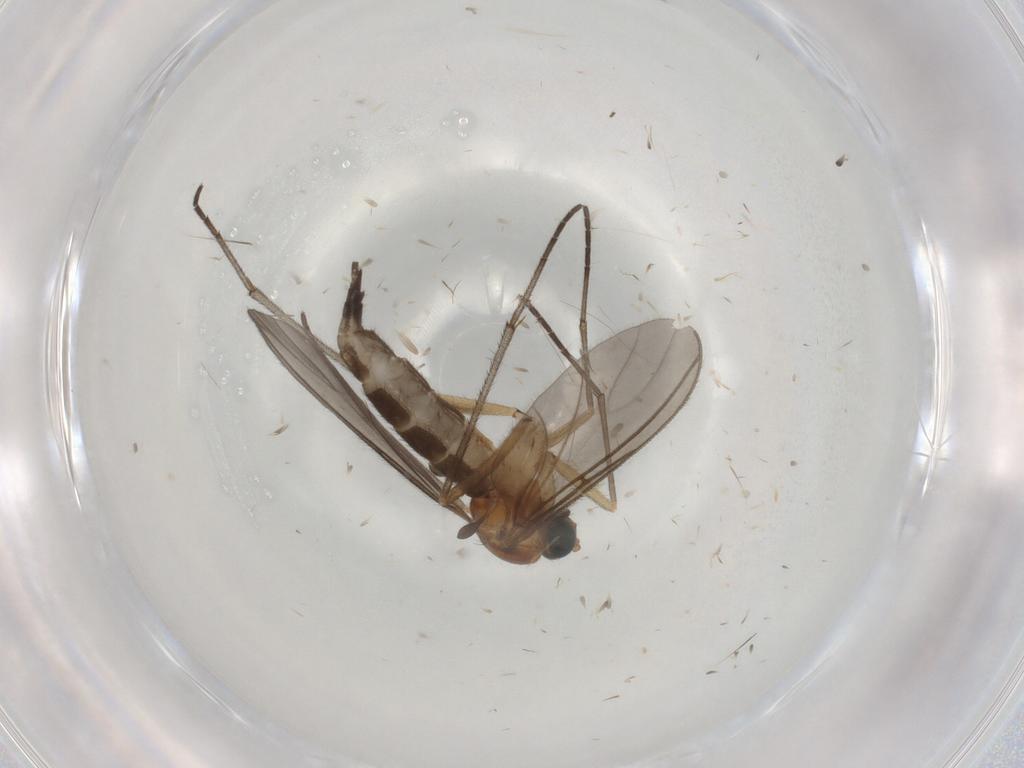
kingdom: Animalia
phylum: Arthropoda
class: Insecta
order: Diptera
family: Sciaridae
